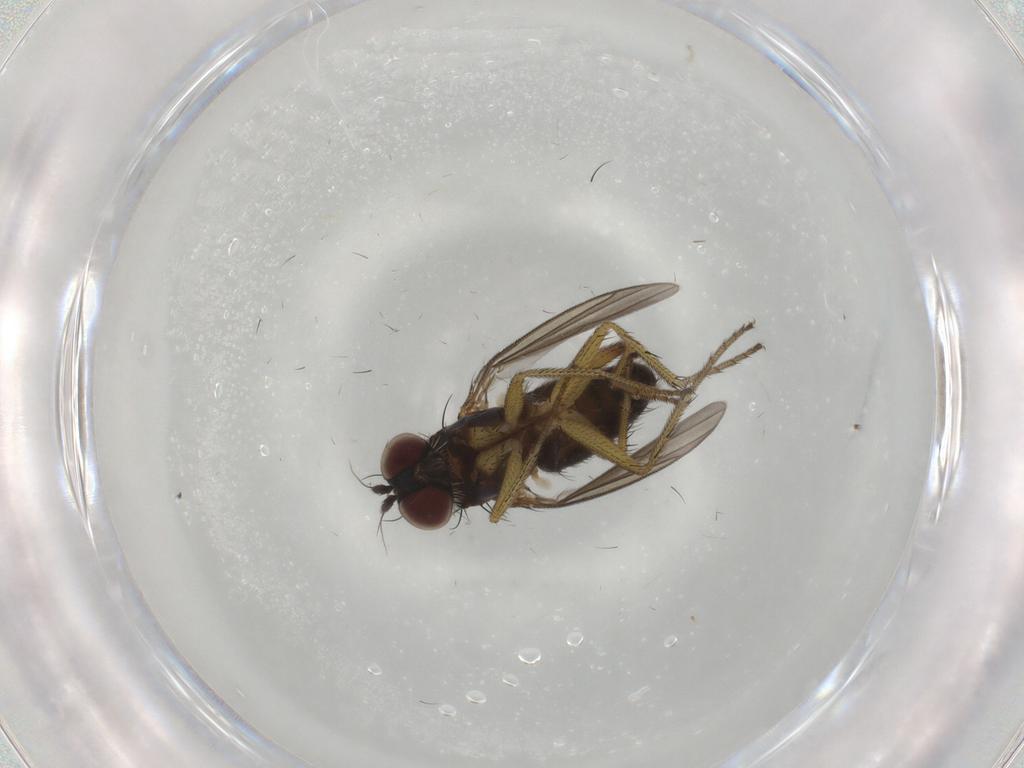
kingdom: Animalia
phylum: Arthropoda
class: Insecta
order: Diptera
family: Dolichopodidae
